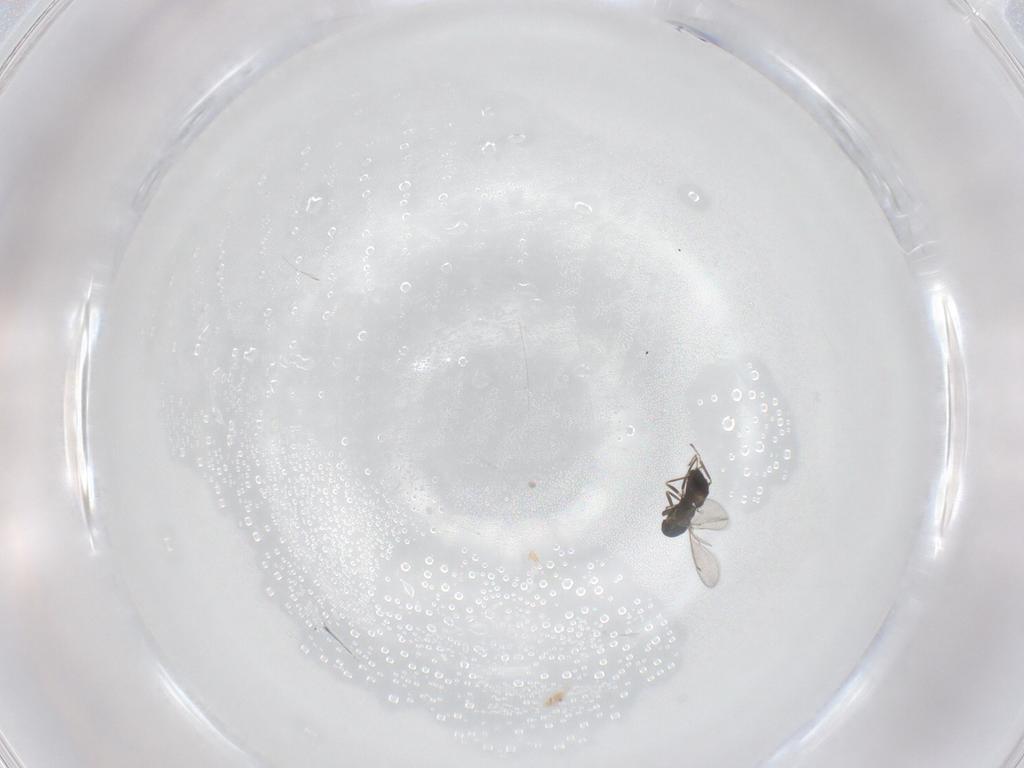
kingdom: Animalia
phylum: Arthropoda
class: Insecta
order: Hymenoptera
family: Eulophidae
